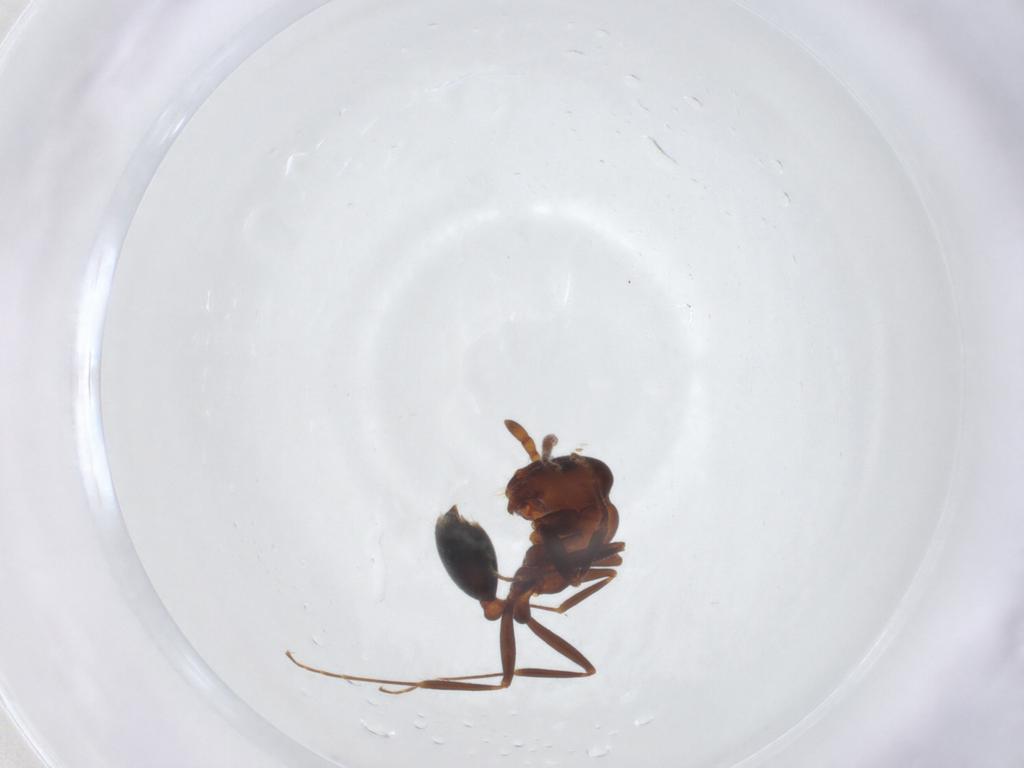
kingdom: Animalia
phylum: Arthropoda
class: Insecta
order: Hymenoptera
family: Formicidae
